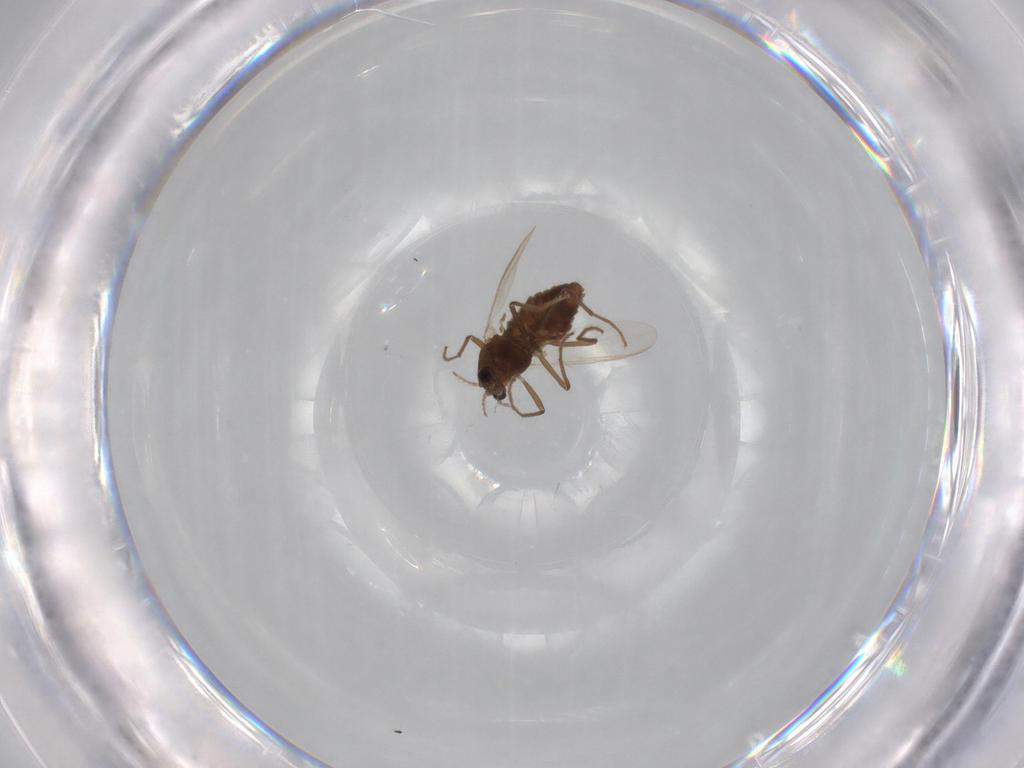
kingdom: Animalia
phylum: Arthropoda
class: Insecta
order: Diptera
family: Chironomidae
